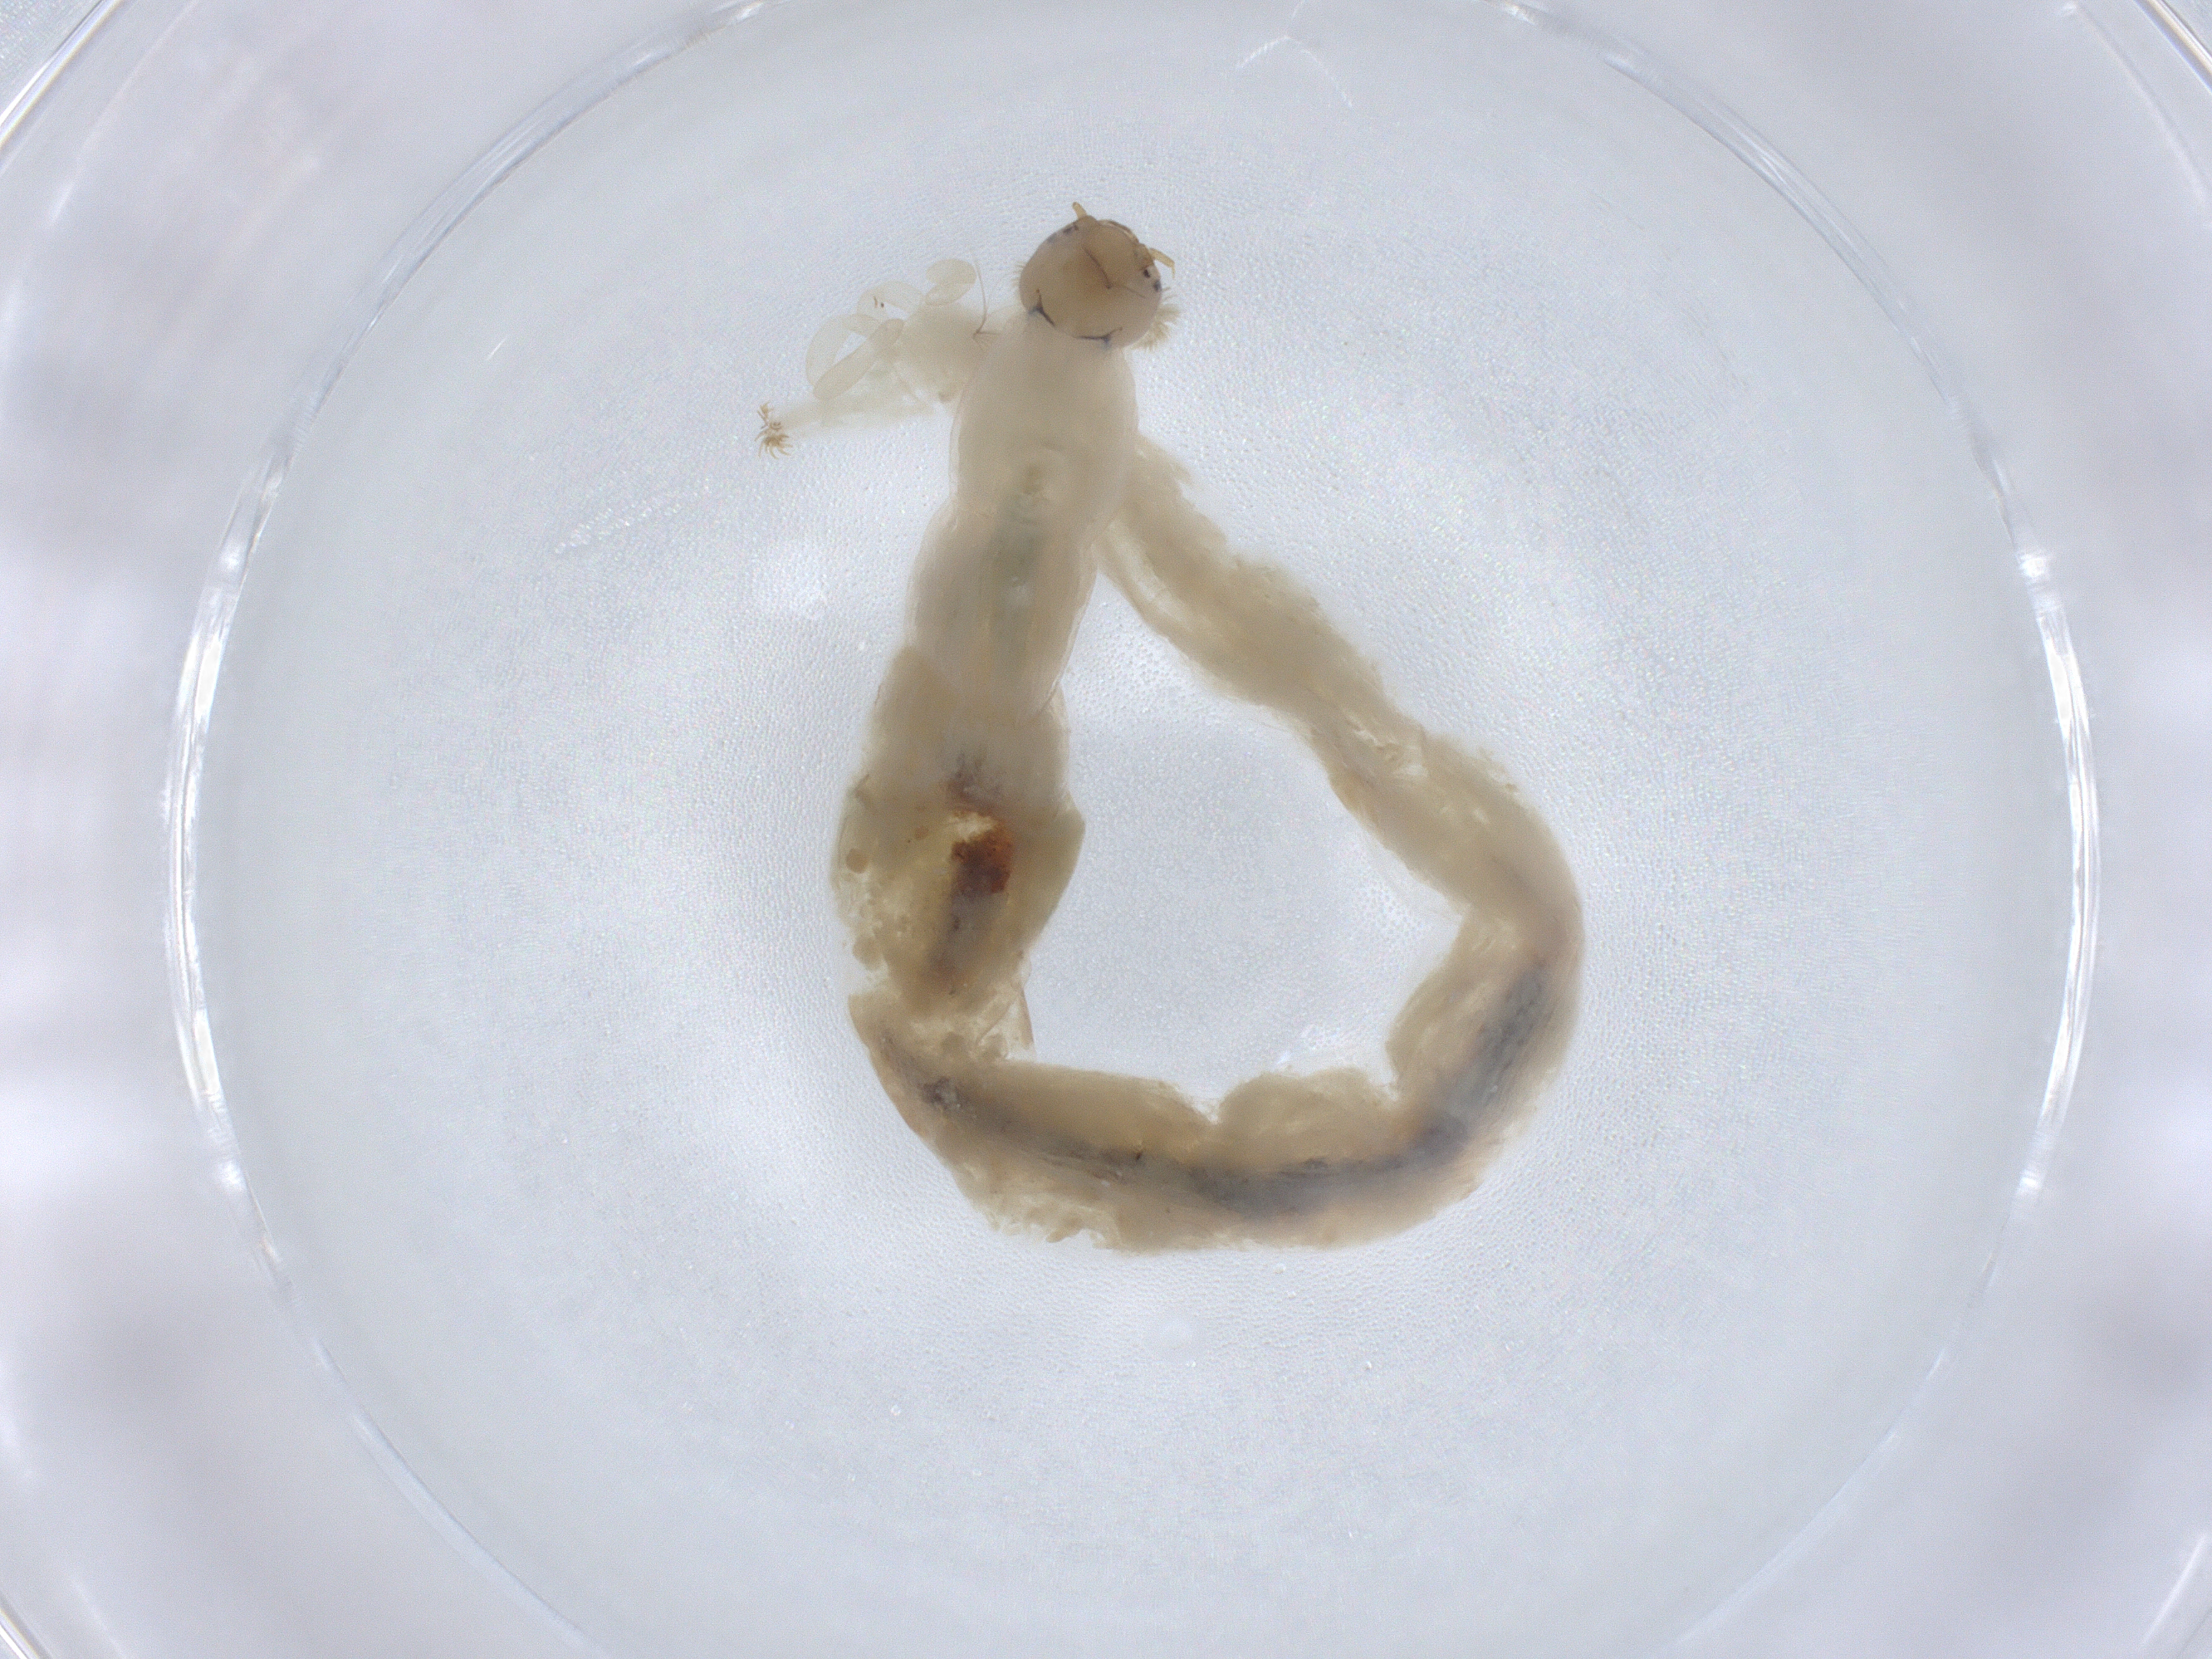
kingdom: Animalia
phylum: Arthropoda
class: Insecta
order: Diptera
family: Chironomidae
